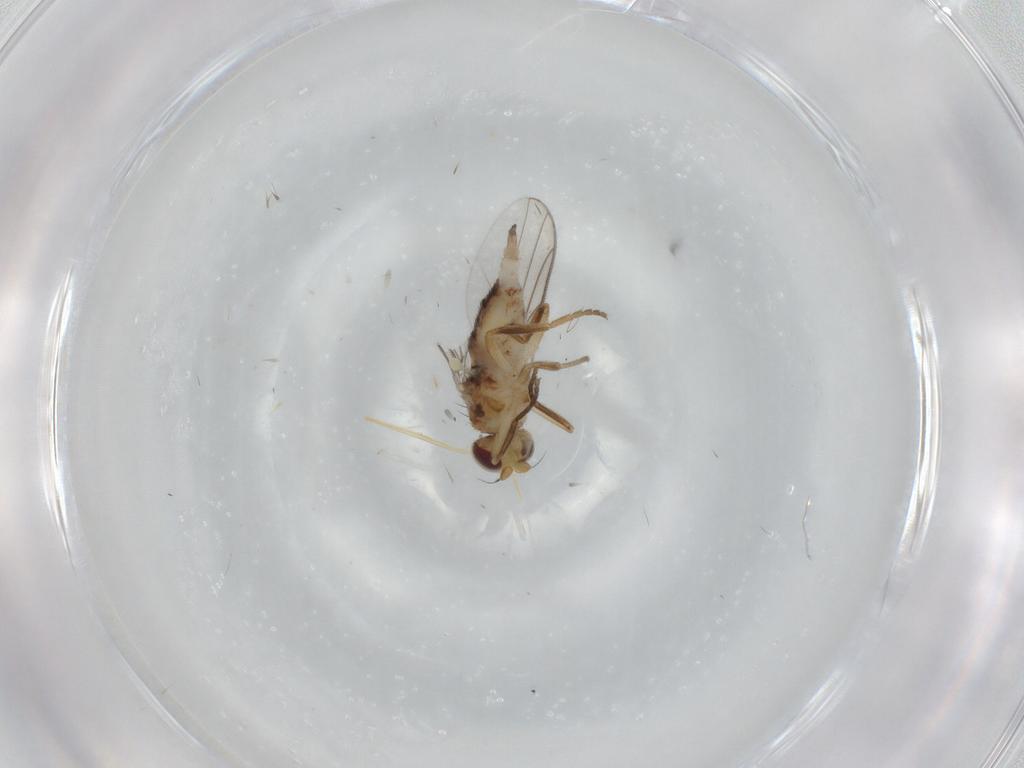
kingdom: Animalia
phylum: Arthropoda
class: Insecta
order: Diptera
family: Chloropidae
